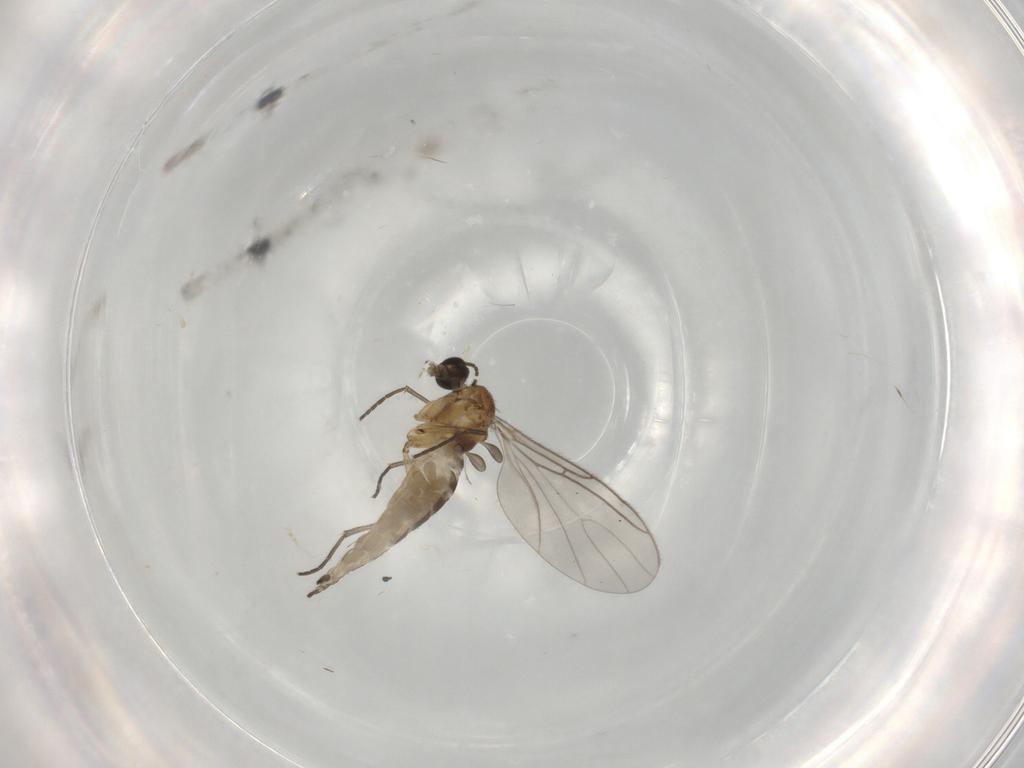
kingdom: Animalia
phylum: Arthropoda
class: Insecta
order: Diptera
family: Sciaridae
